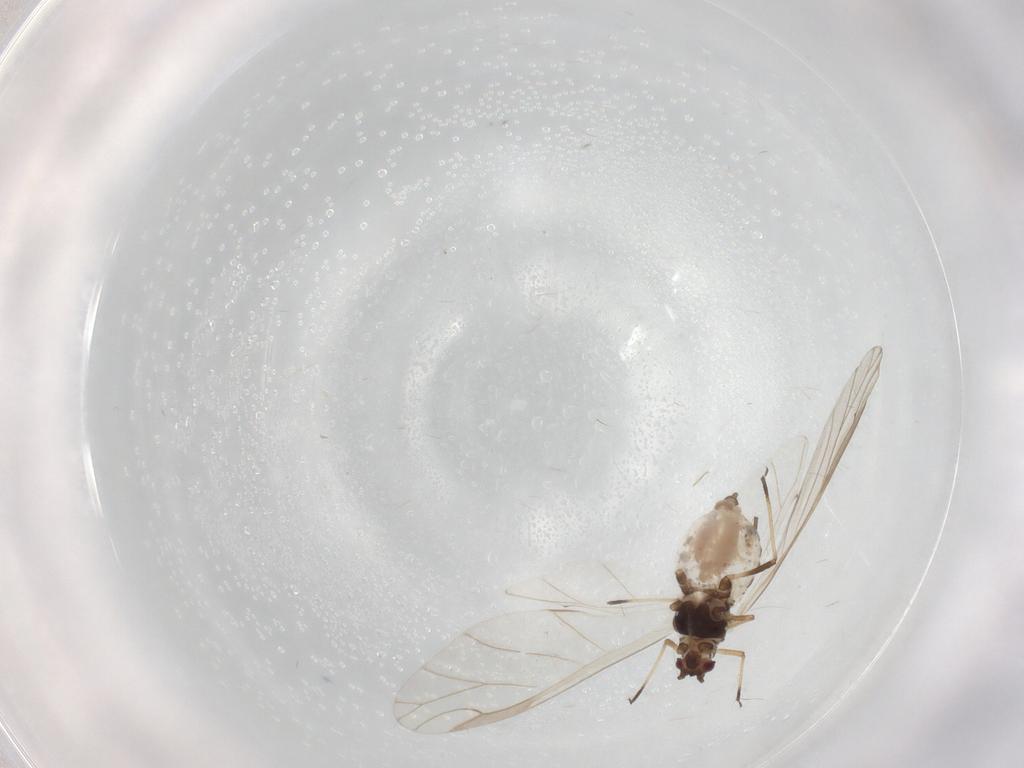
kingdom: Animalia
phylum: Arthropoda
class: Insecta
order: Hemiptera
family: Aphididae
